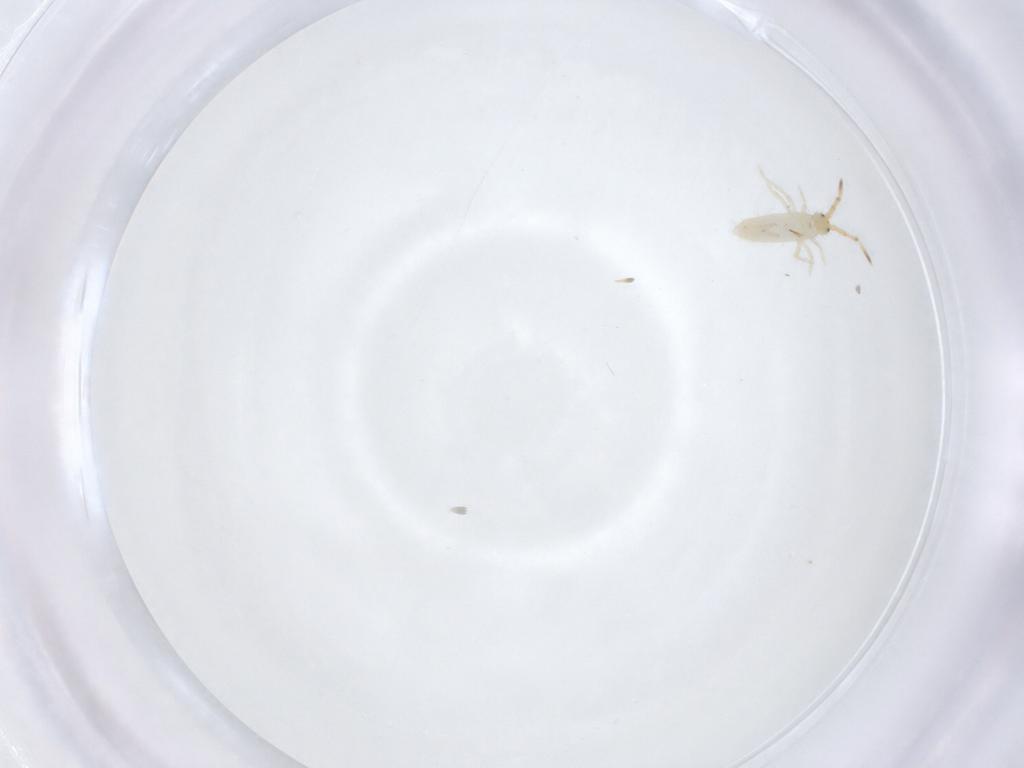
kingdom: Animalia
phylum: Arthropoda
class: Collembola
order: Entomobryomorpha
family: Entomobryidae
